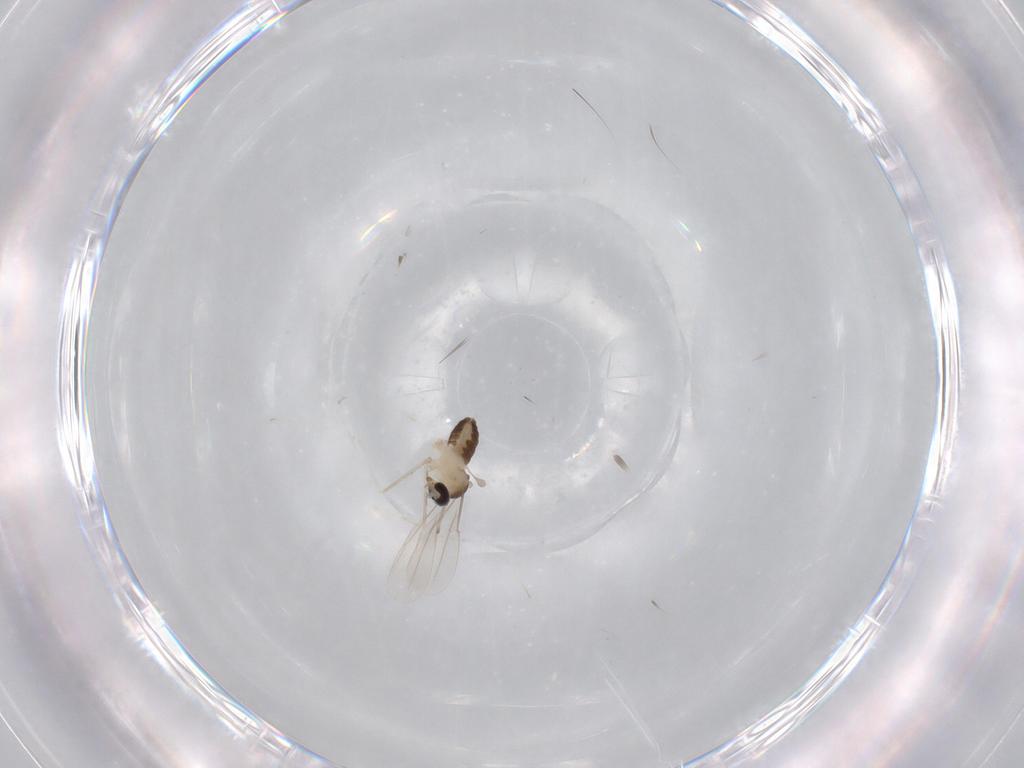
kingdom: Animalia
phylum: Arthropoda
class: Insecta
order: Diptera
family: Cecidomyiidae
